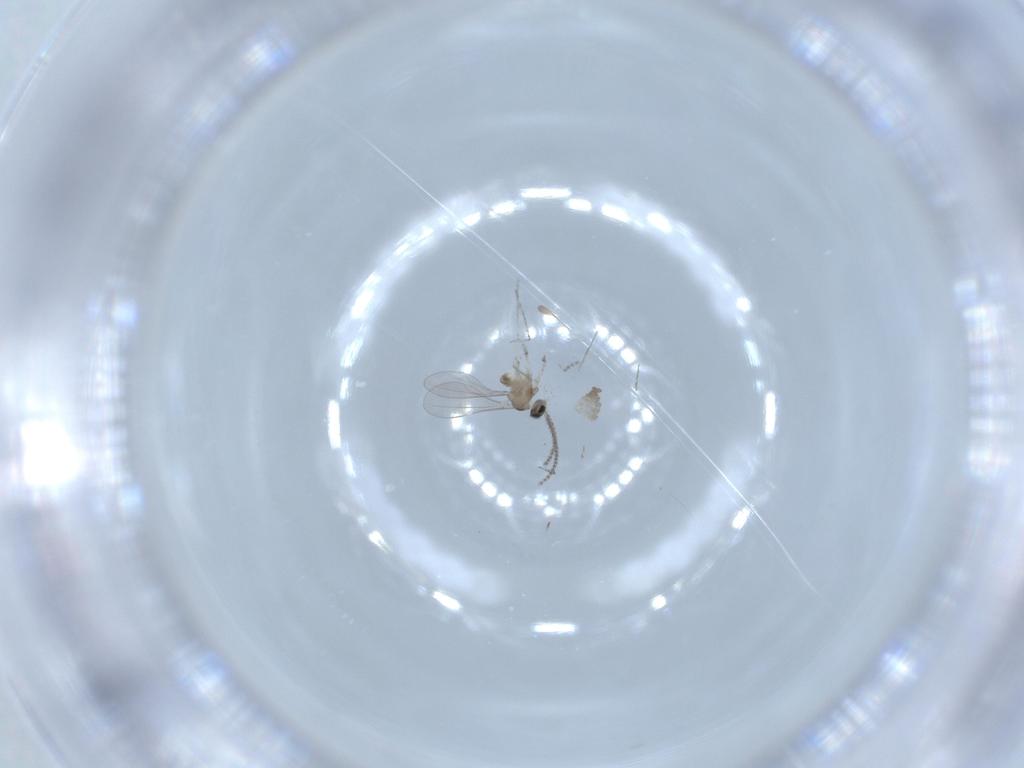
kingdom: Animalia
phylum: Arthropoda
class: Insecta
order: Diptera
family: Cecidomyiidae
